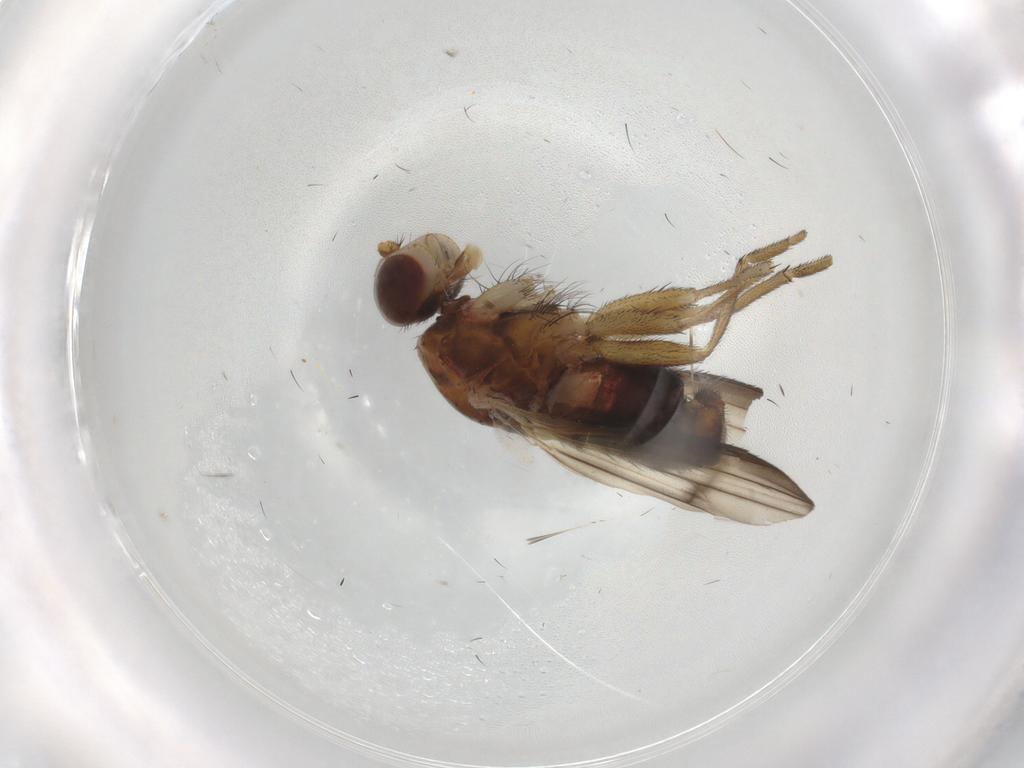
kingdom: Animalia
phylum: Arthropoda
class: Insecta
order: Diptera
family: Heleomyzidae
